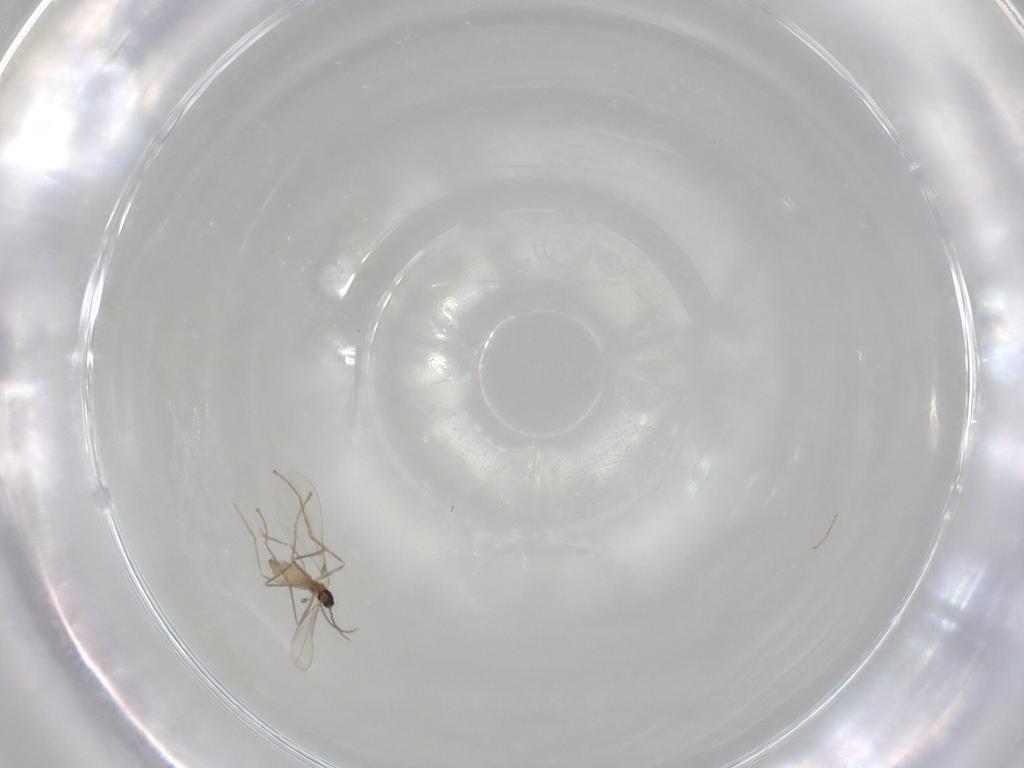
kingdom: Animalia
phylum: Arthropoda
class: Insecta
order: Diptera
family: Cecidomyiidae
